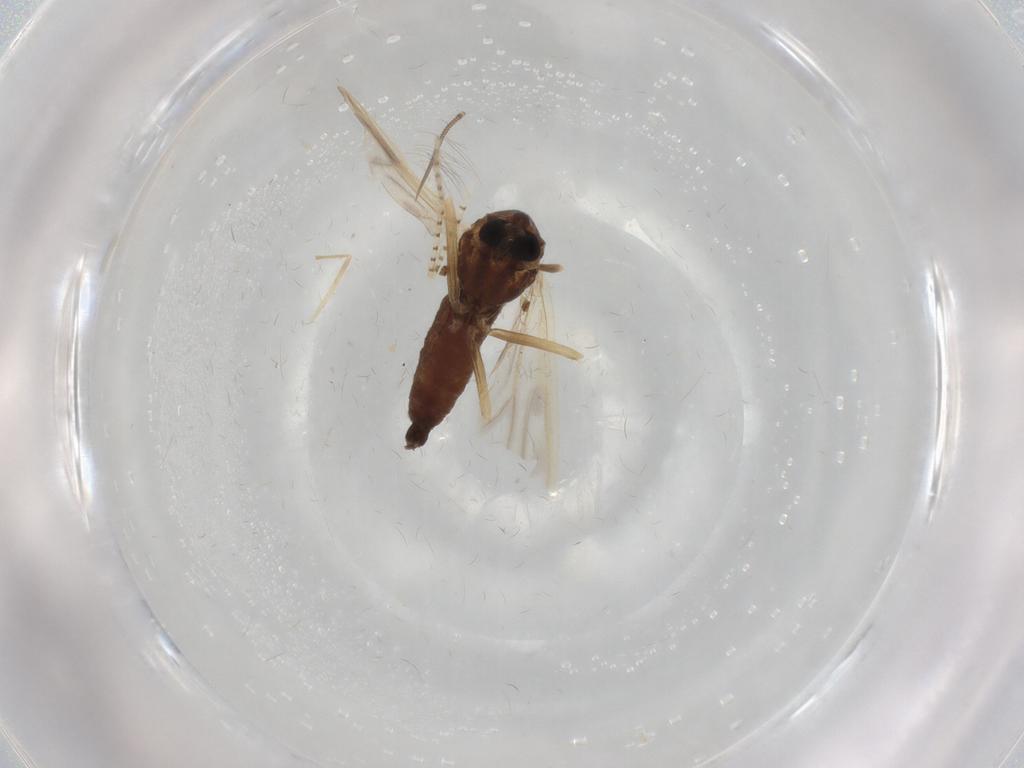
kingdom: Animalia
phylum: Arthropoda
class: Insecta
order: Diptera
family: Chironomidae
